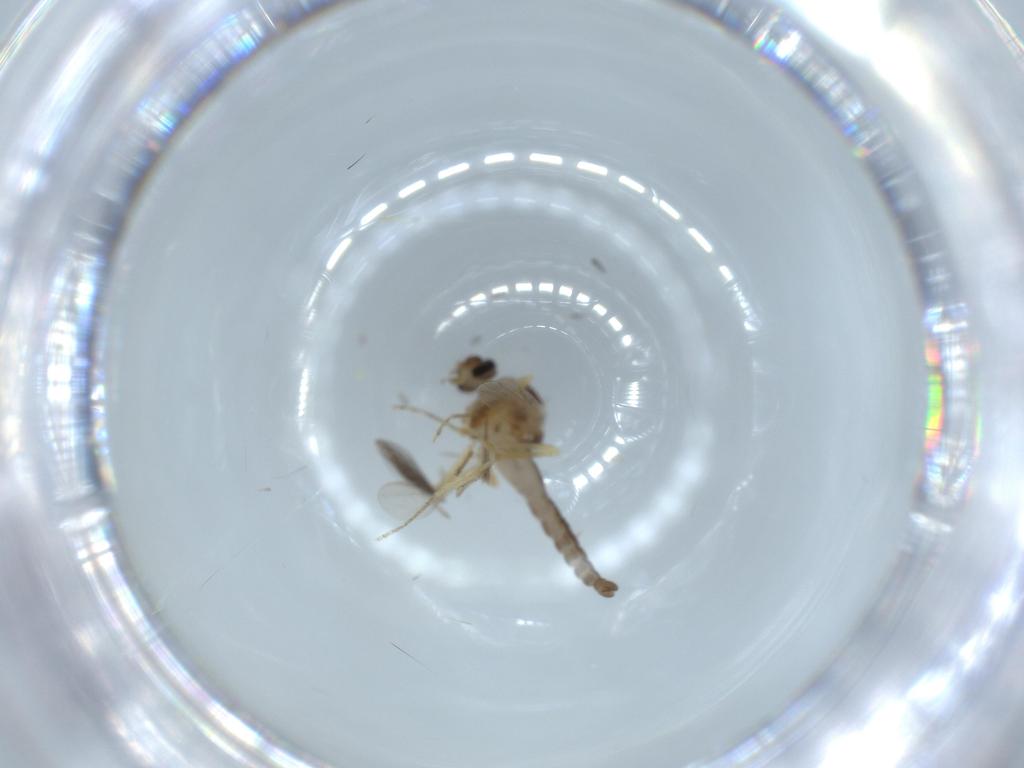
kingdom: Animalia
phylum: Arthropoda
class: Insecta
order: Diptera
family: Ceratopogonidae
